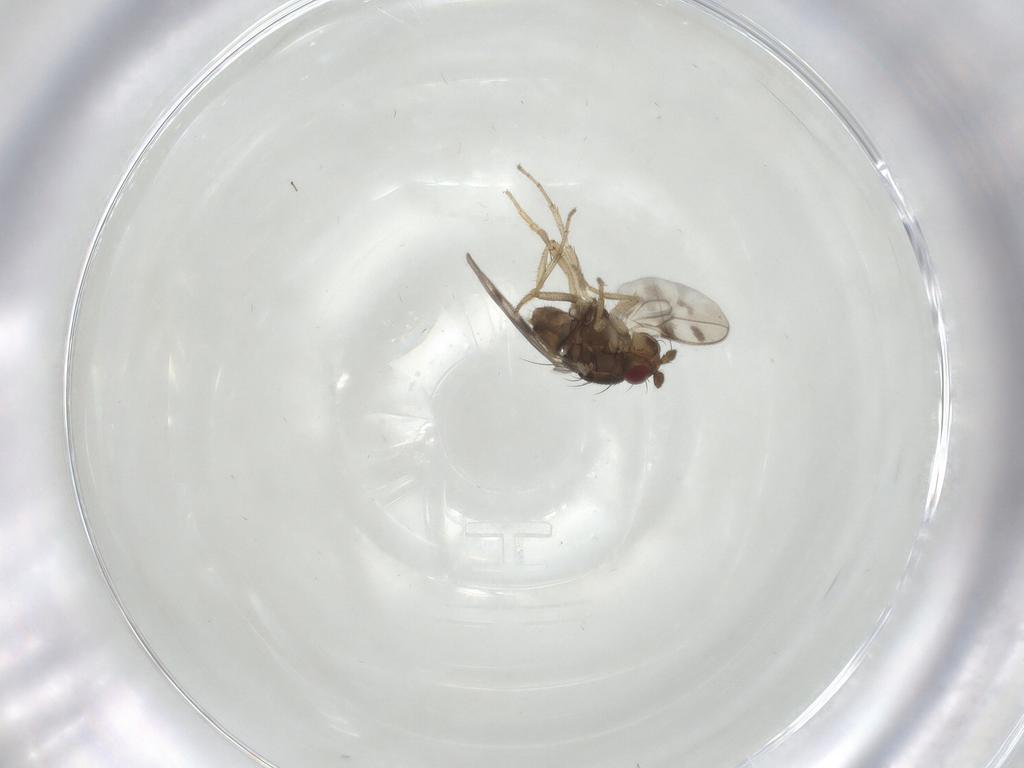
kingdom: Animalia
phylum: Arthropoda
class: Insecta
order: Diptera
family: Sphaeroceridae
